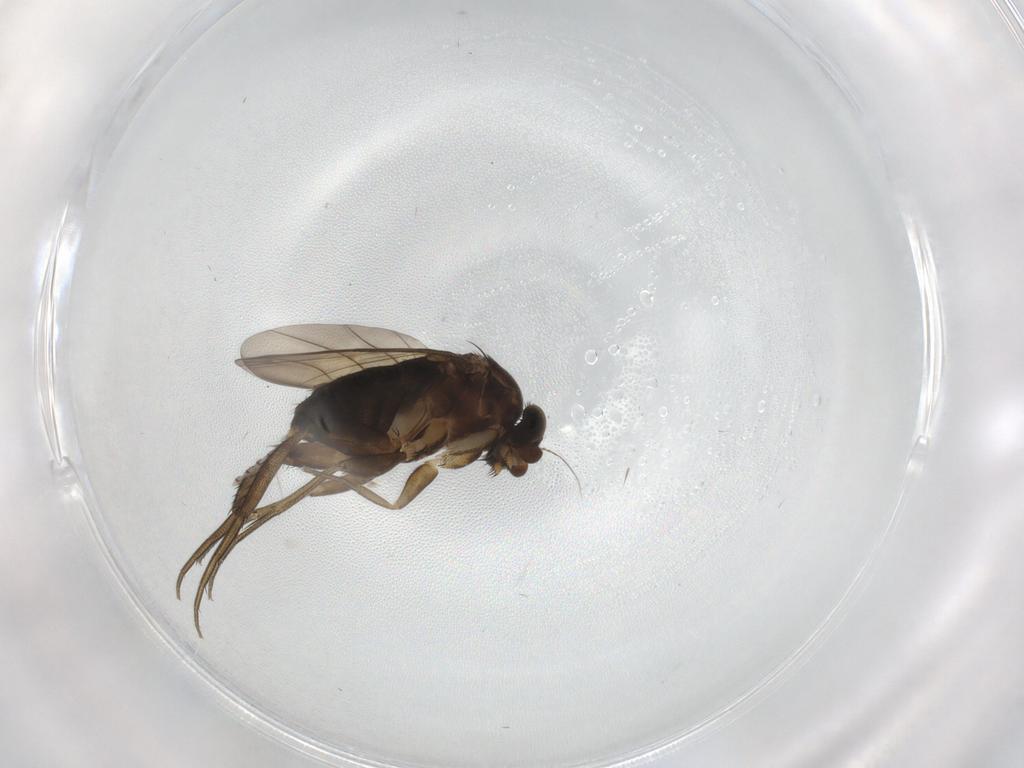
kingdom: Animalia
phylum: Arthropoda
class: Insecta
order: Diptera
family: Phoridae
